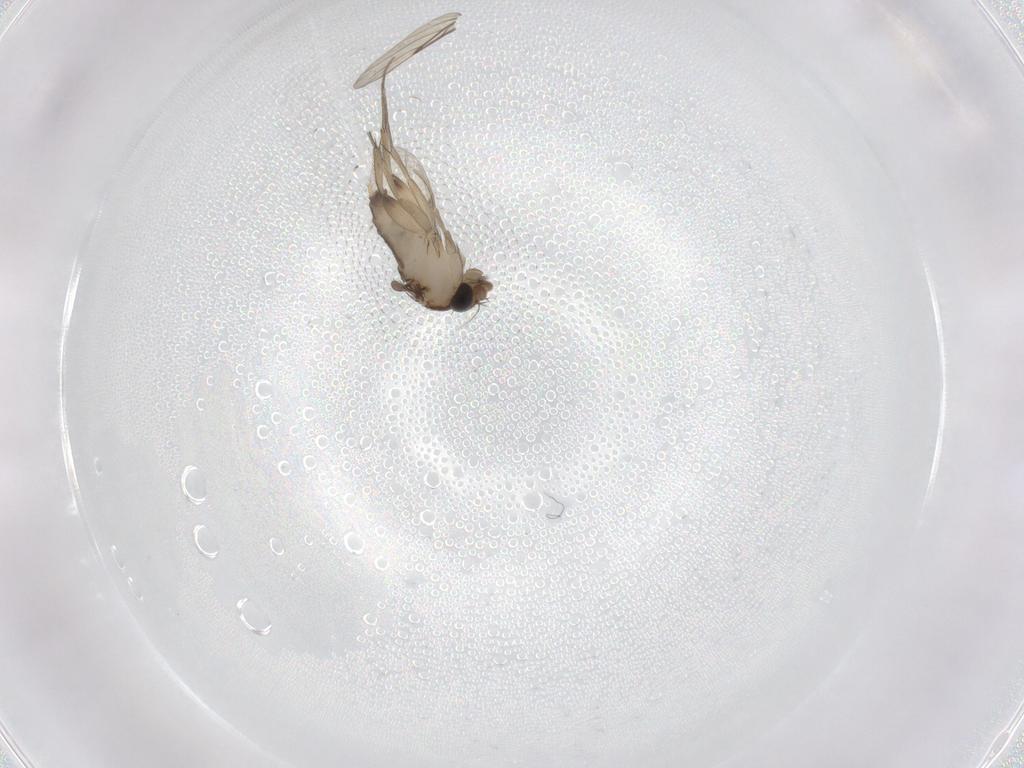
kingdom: Animalia
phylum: Arthropoda
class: Insecta
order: Diptera
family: Phoridae
